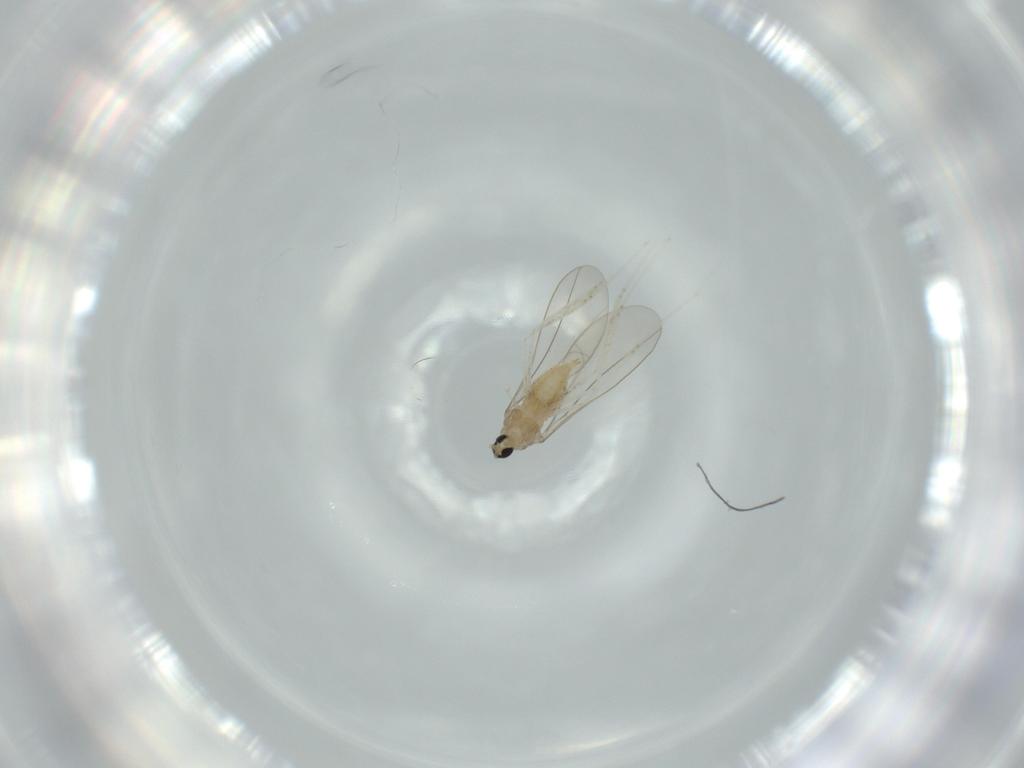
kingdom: Animalia
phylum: Arthropoda
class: Insecta
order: Diptera
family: Cecidomyiidae
